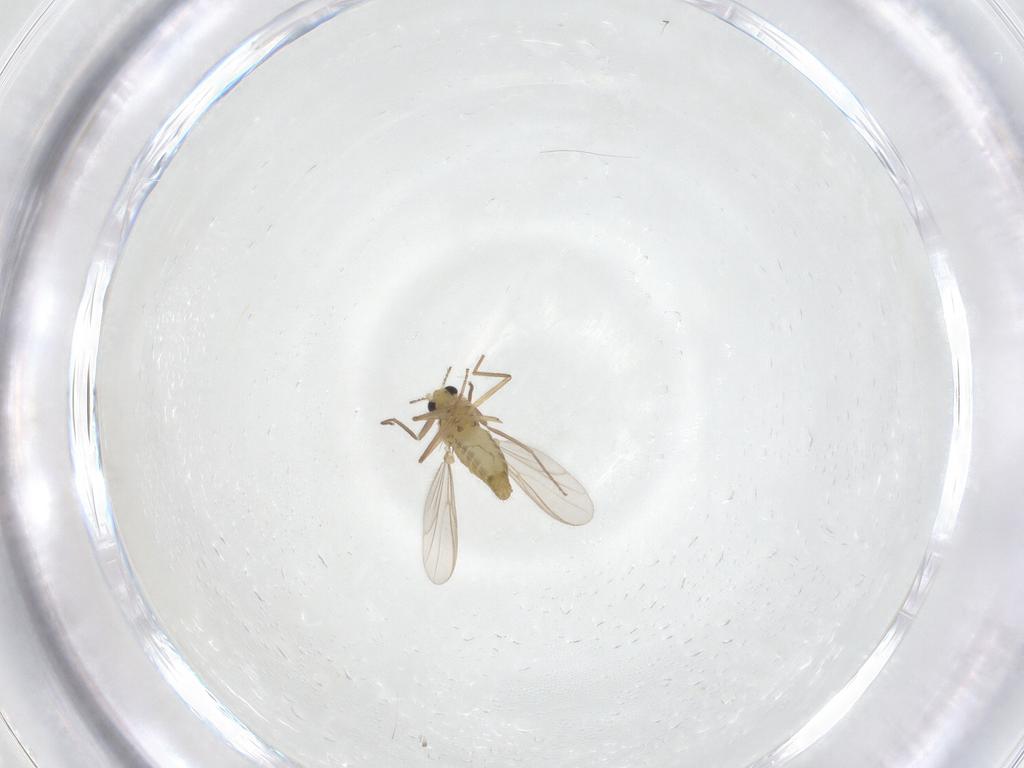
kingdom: Animalia
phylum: Arthropoda
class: Insecta
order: Diptera
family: Chironomidae
